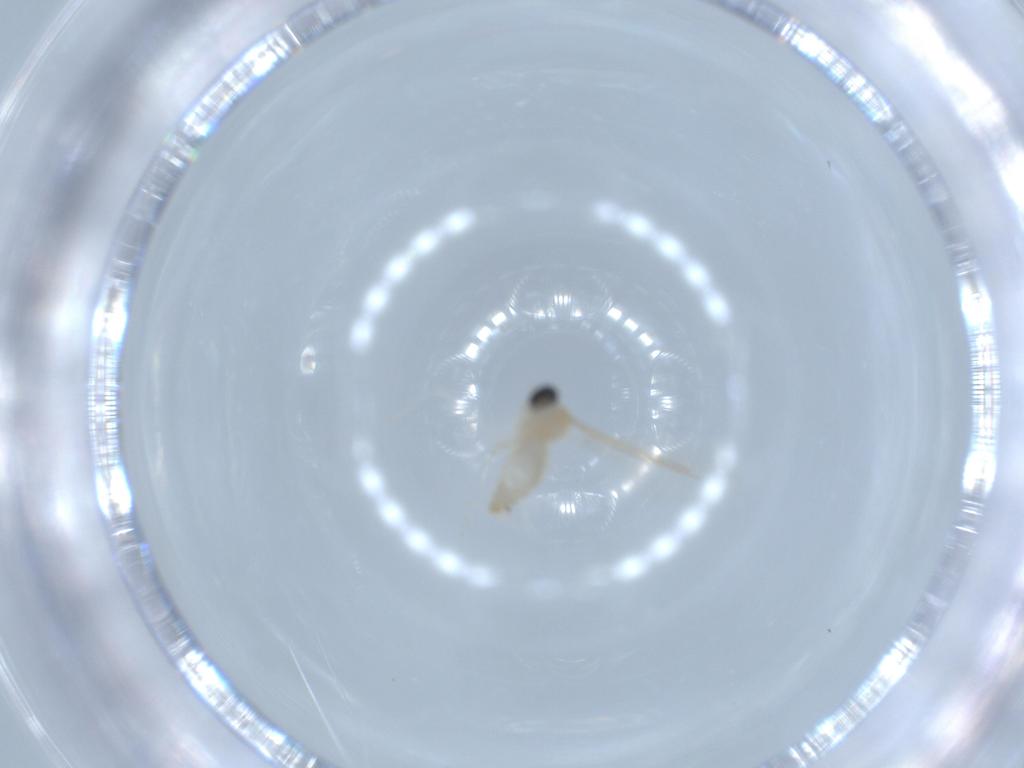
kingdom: Animalia
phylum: Arthropoda
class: Insecta
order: Diptera
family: Cecidomyiidae
